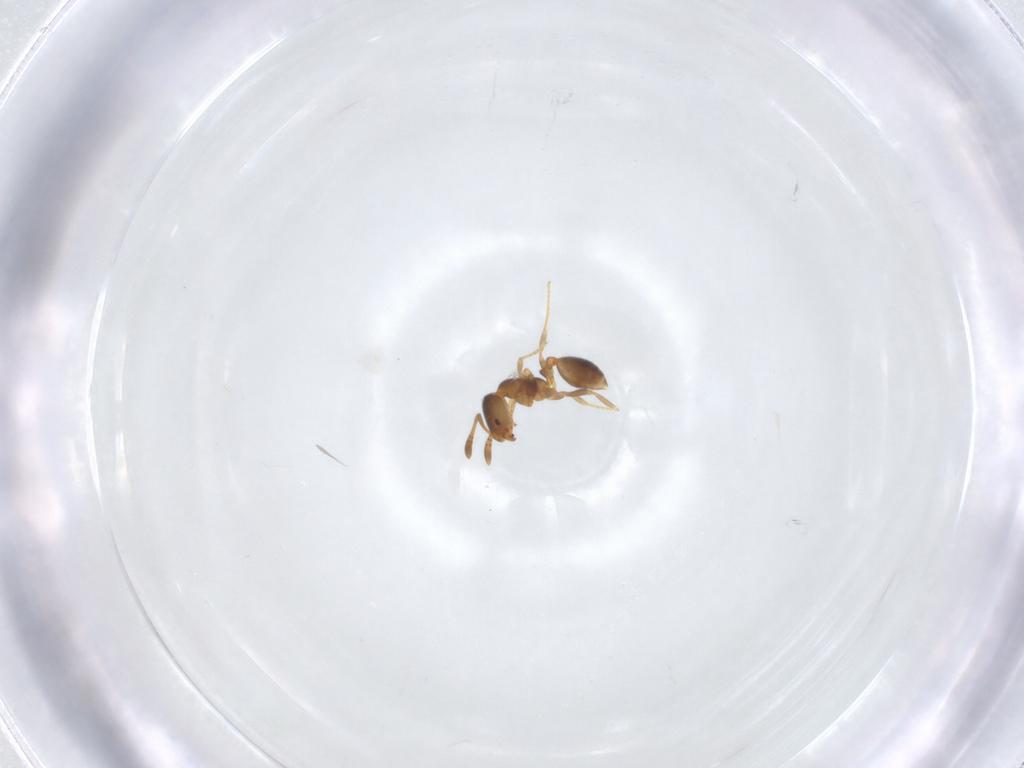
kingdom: Animalia
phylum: Arthropoda
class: Insecta
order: Hymenoptera
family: Formicidae
